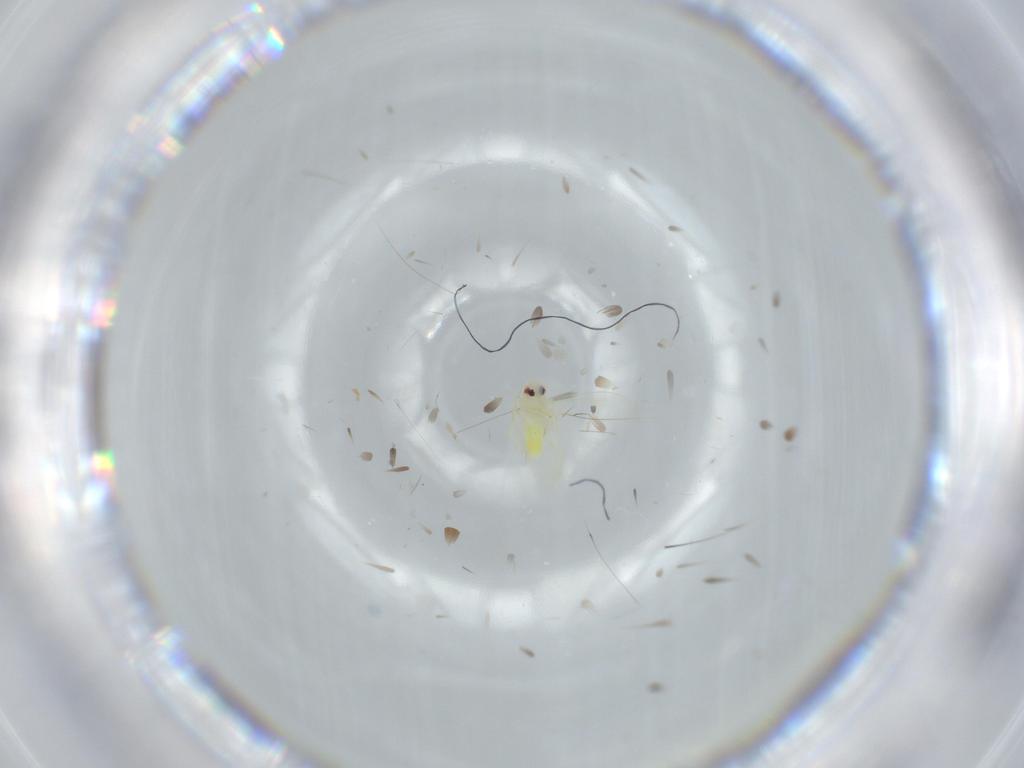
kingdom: Animalia
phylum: Arthropoda
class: Insecta
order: Hemiptera
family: Aleyrodidae
